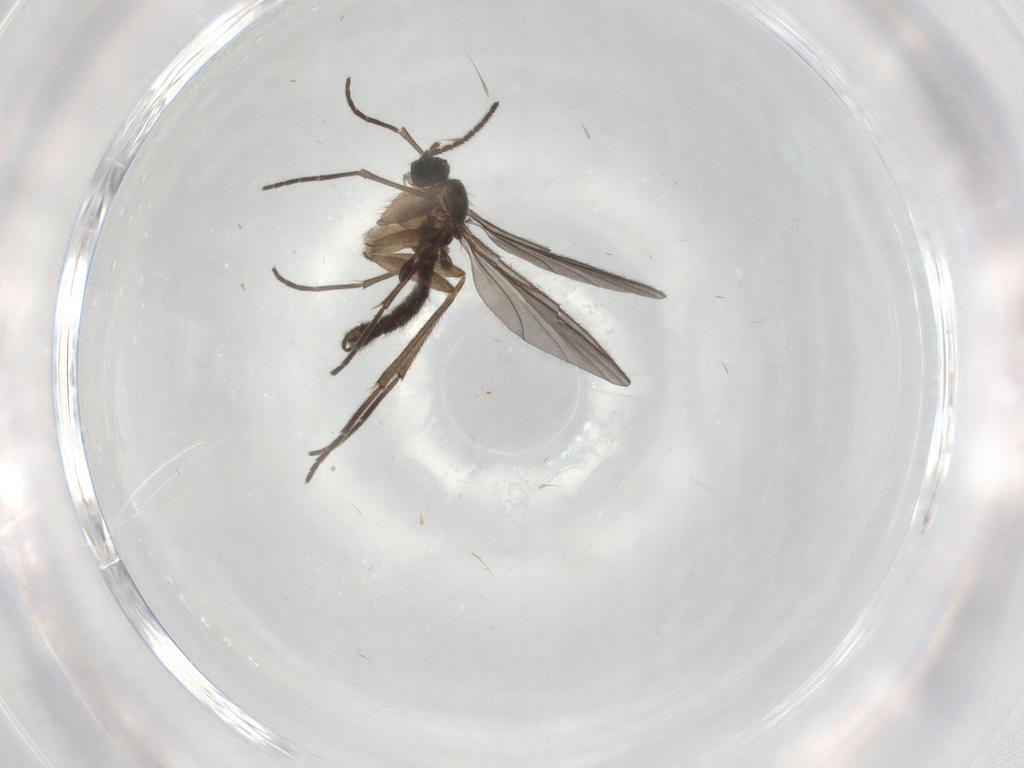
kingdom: Animalia
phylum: Arthropoda
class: Insecta
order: Diptera
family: Sciaridae
